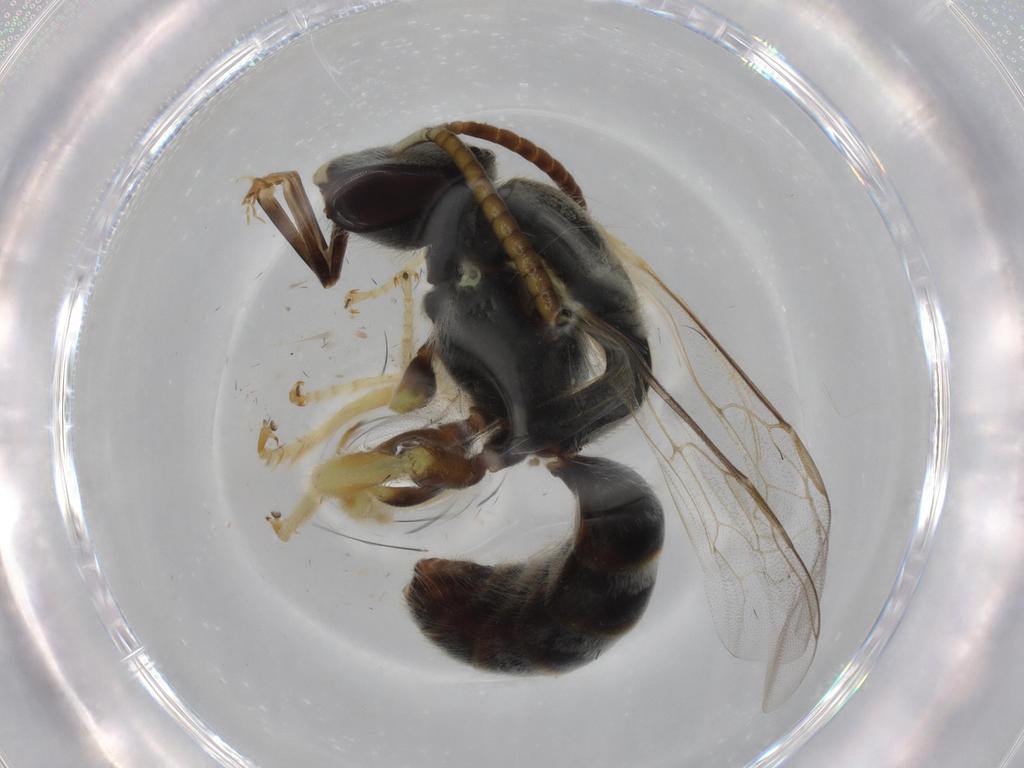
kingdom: Animalia
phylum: Arthropoda
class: Insecta
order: Hymenoptera
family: Halictidae
